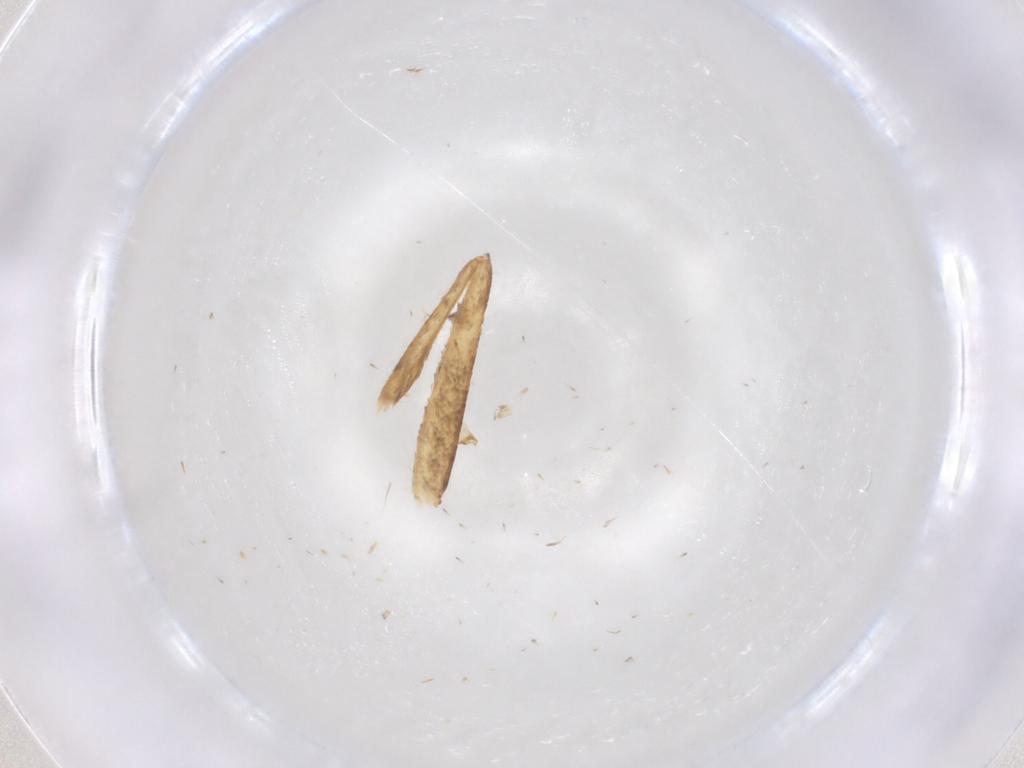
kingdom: Animalia
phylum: Arthropoda
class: Insecta
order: Lepidoptera
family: Geometridae
